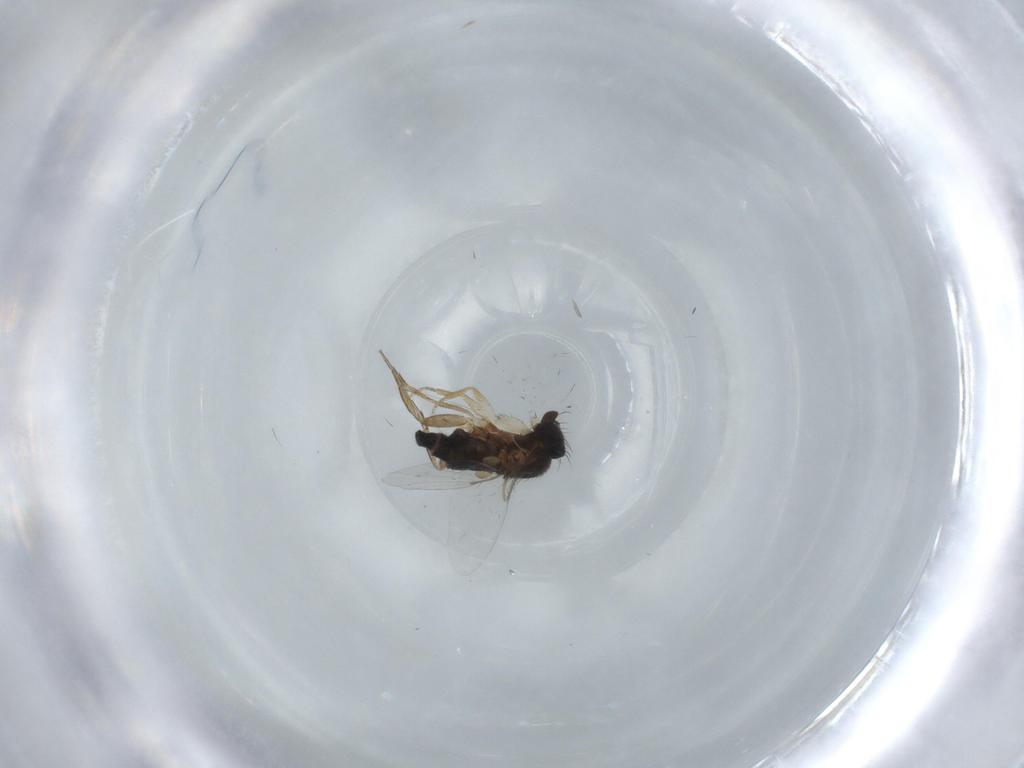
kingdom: Animalia
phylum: Arthropoda
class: Insecta
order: Diptera
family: Phoridae
